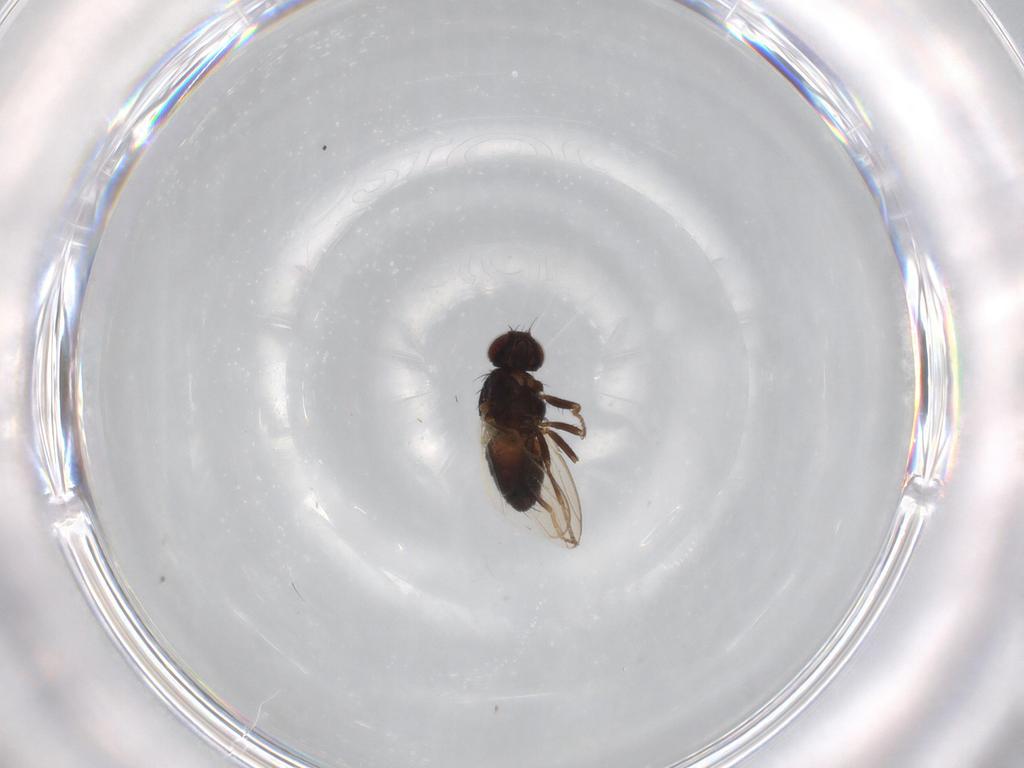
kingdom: Animalia
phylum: Arthropoda
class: Insecta
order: Diptera
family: Carnidae
